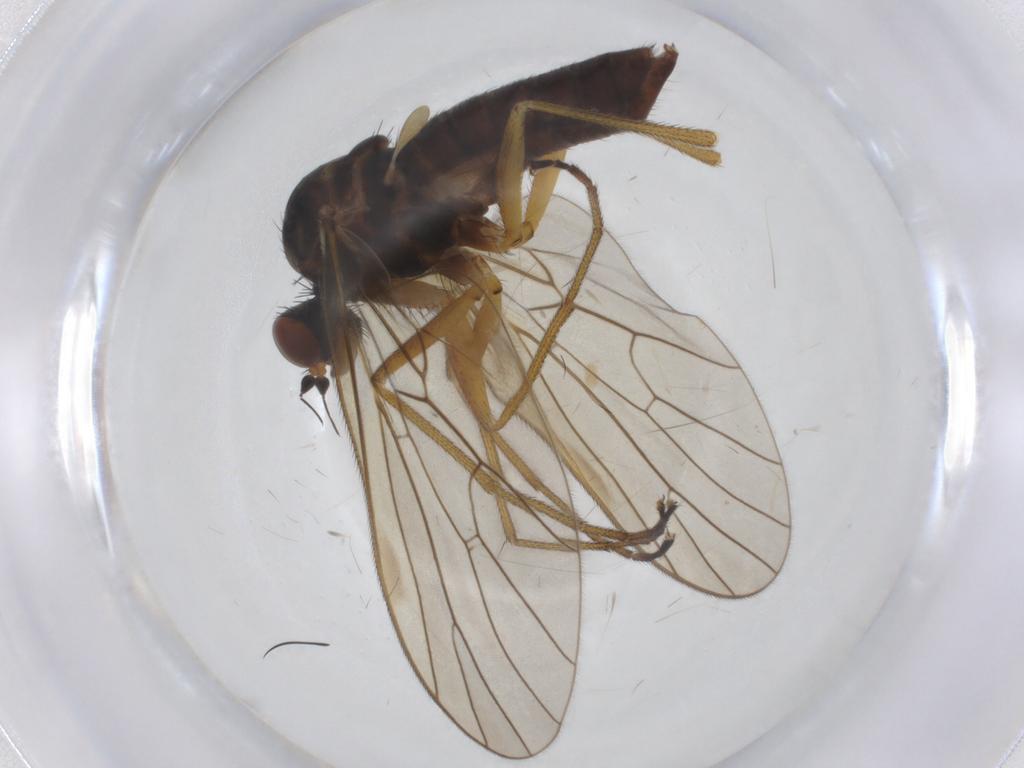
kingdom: Animalia
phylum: Arthropoda
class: Insecta
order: Diptera
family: Brachystomatidae
